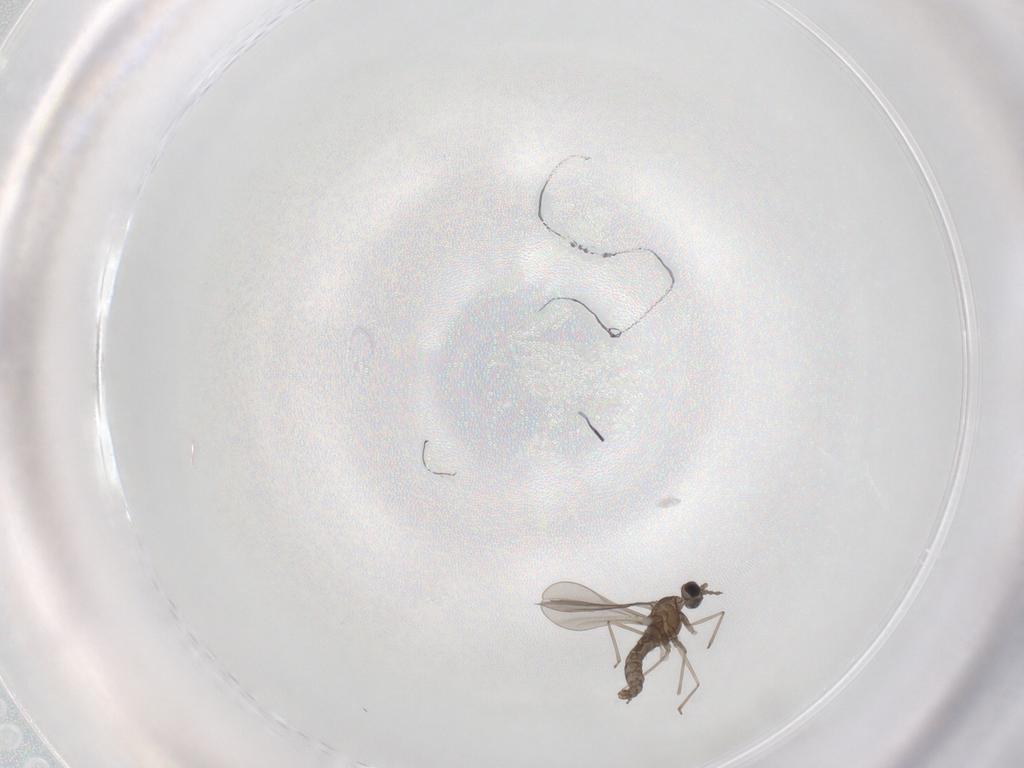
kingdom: Animalia
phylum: Arthropoda
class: Insecta
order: Diptera
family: Cecidomyiidae
